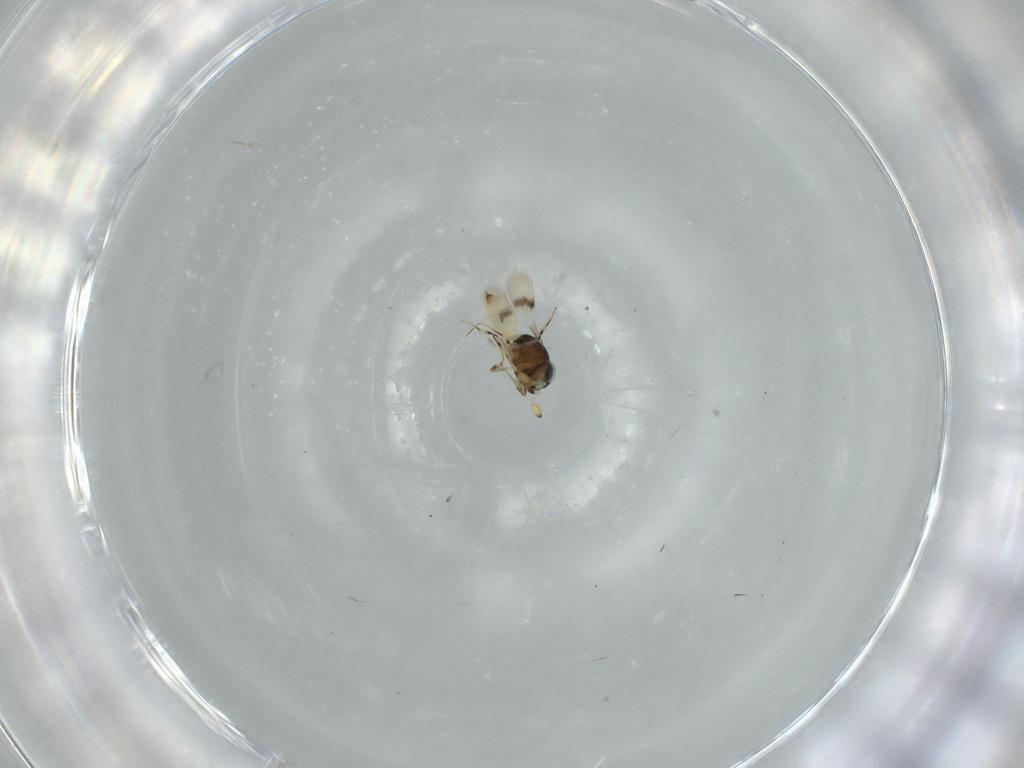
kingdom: Animalia
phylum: Arthropoda
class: Insecta
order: Hymenoptera
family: Scelionidae
